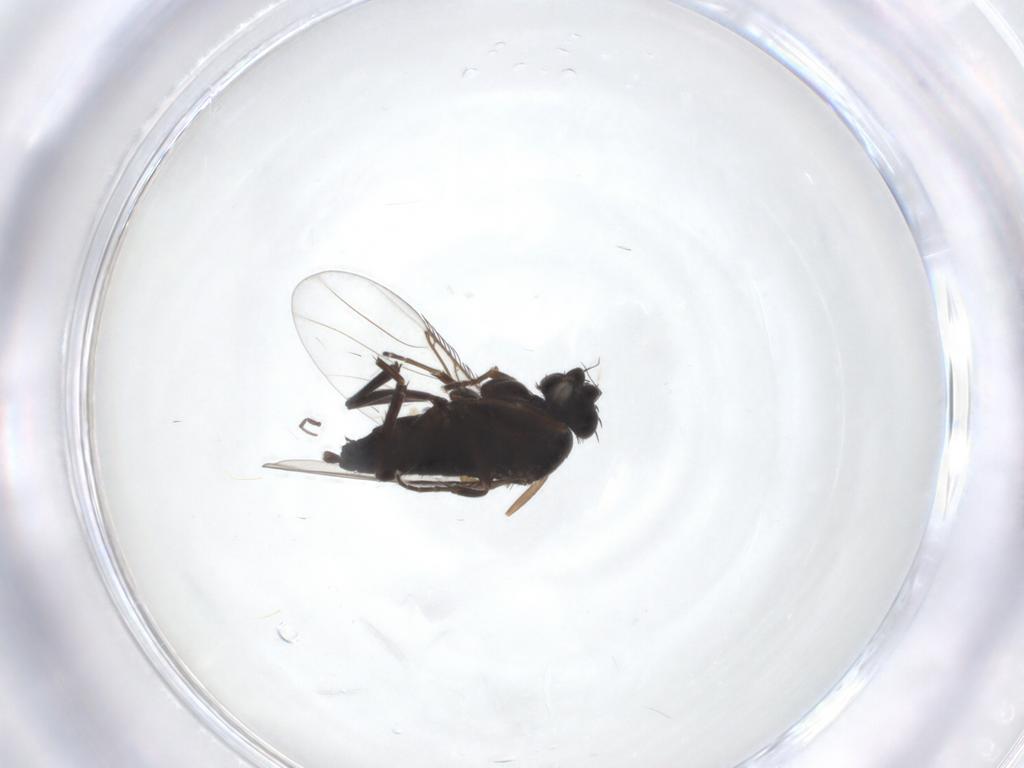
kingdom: Animalia
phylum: Arthropoda
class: Insecta
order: Diptera
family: Phoridae
